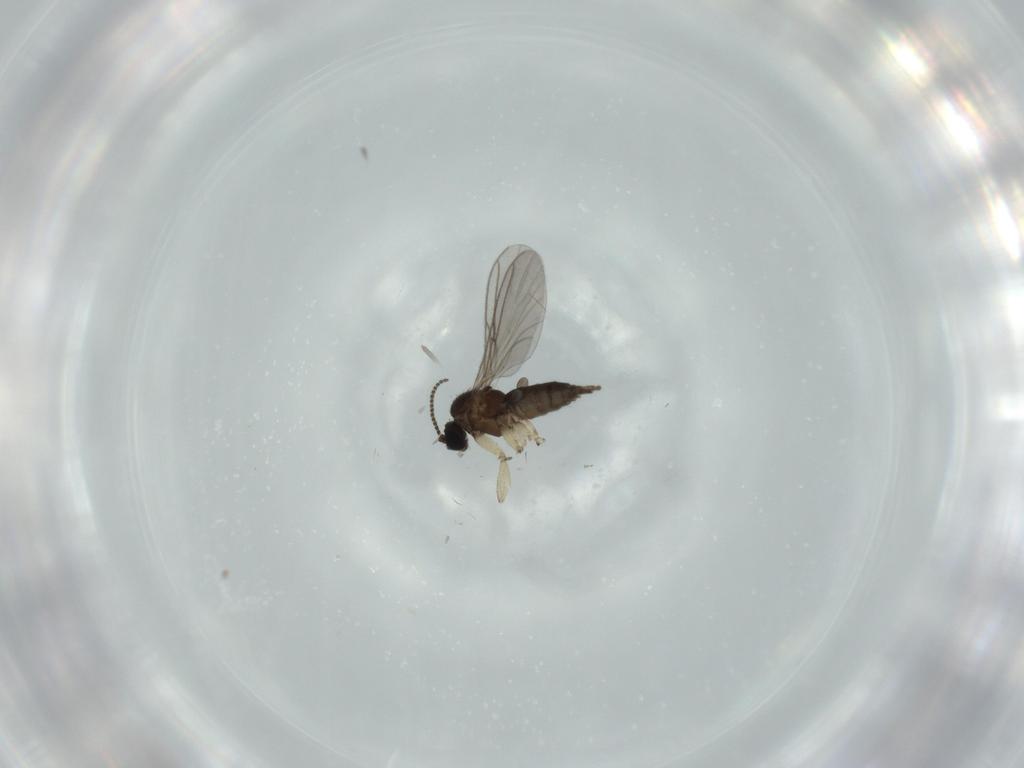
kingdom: Animalia
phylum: Arthropoda
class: Insecta
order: Diptera
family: Sciaridae
